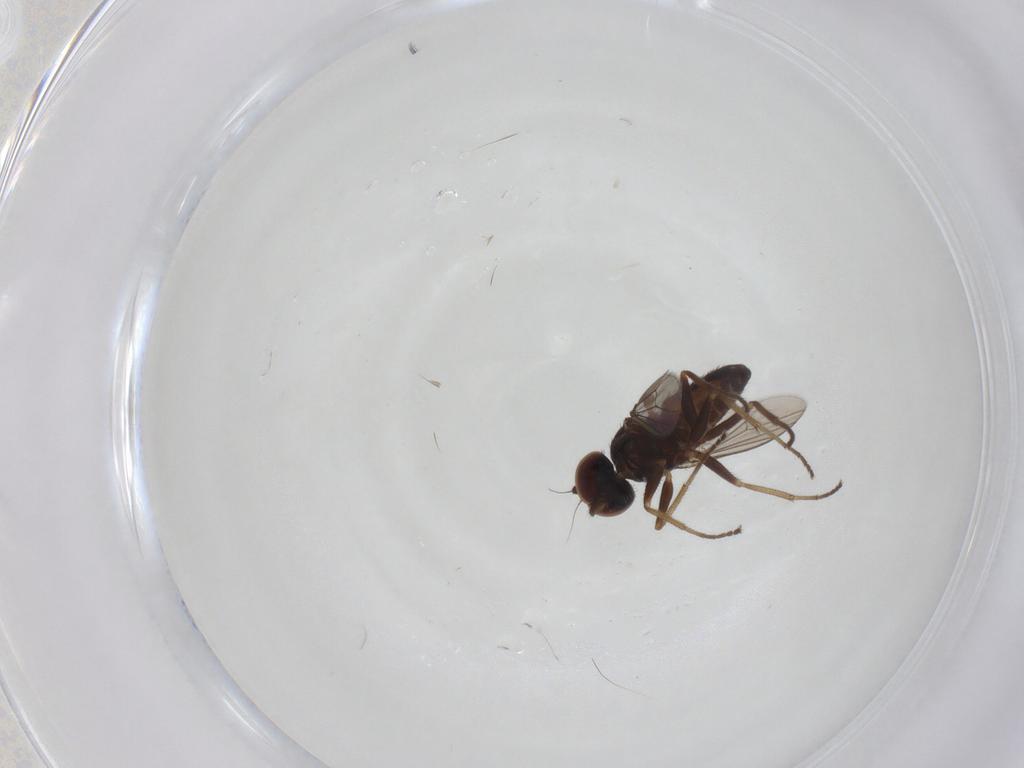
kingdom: Animalia
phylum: Arthropoda
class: Insecta
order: Diptera
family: Dolichopodidae
